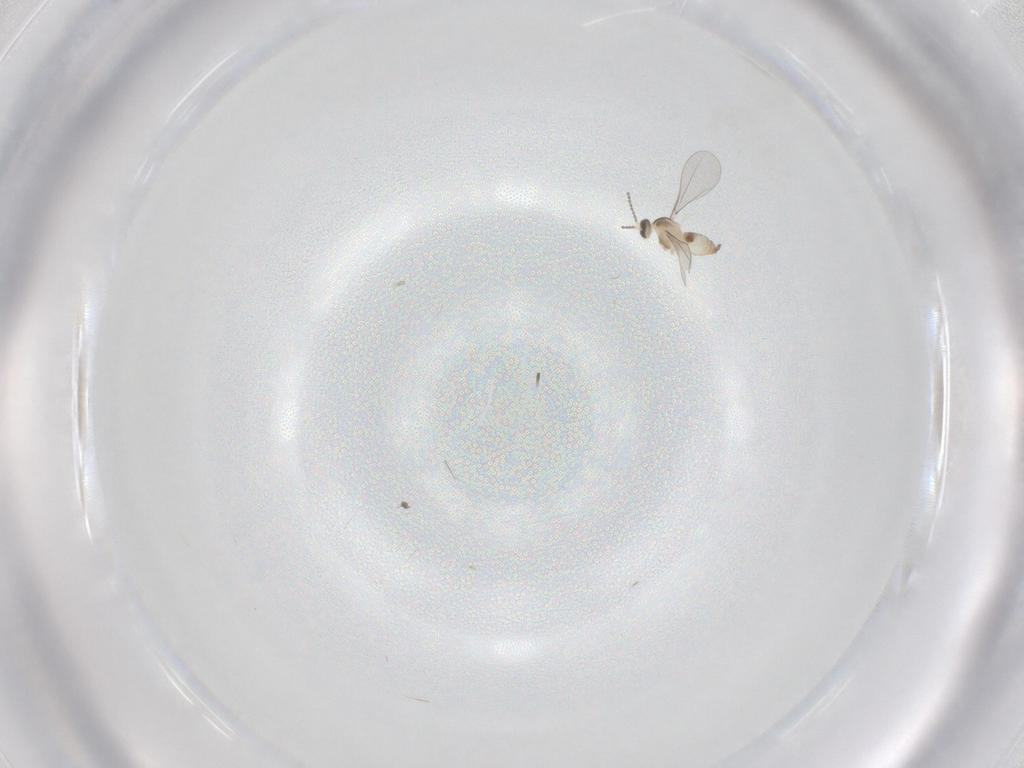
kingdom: Animalia
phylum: Arthropoda
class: Insecta
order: Diptera
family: Cecidomyiidae
